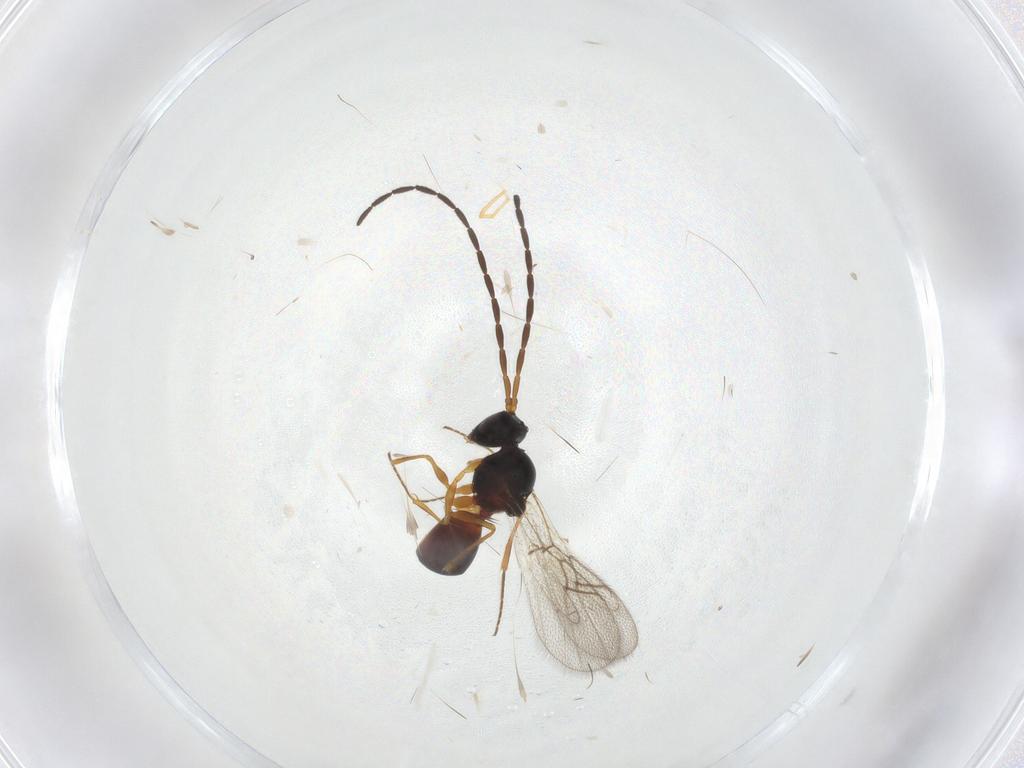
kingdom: Animalia
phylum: Arthropoda
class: Insecta
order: Hymenoptera
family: Figitidae
